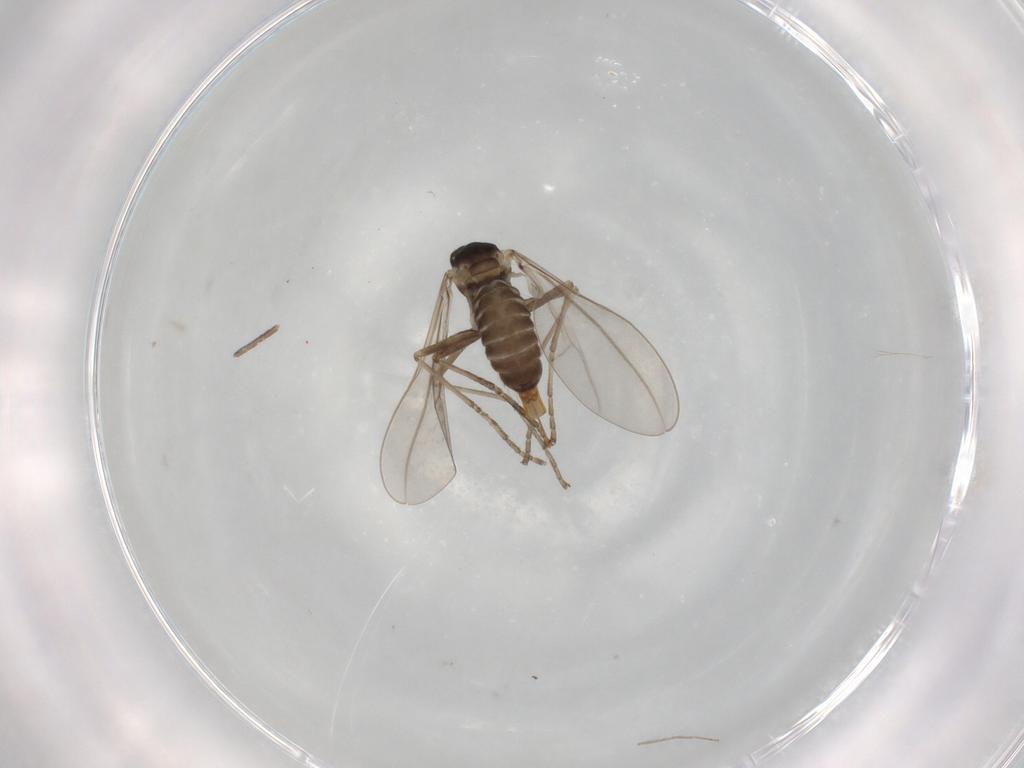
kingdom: Animalia
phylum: Arthropoda
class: Insecta
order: Diptera
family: Cecidomyiidae
